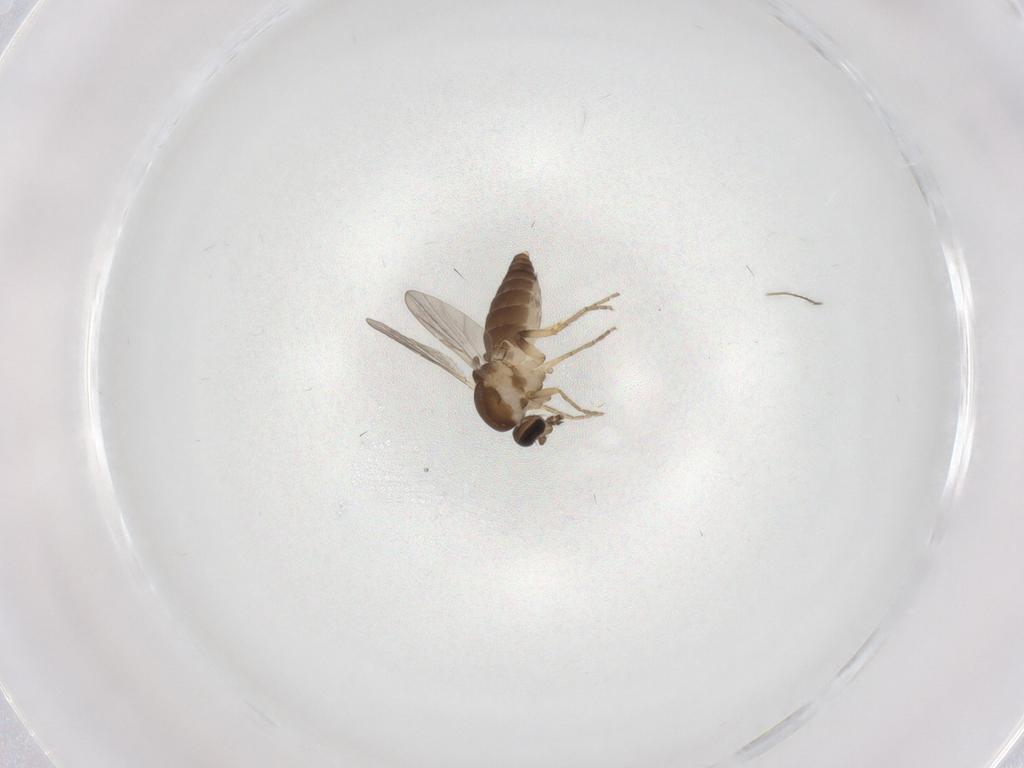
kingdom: Animalia
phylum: Arthropoda
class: Insecta
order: Diptera
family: Ceratopogonidae
